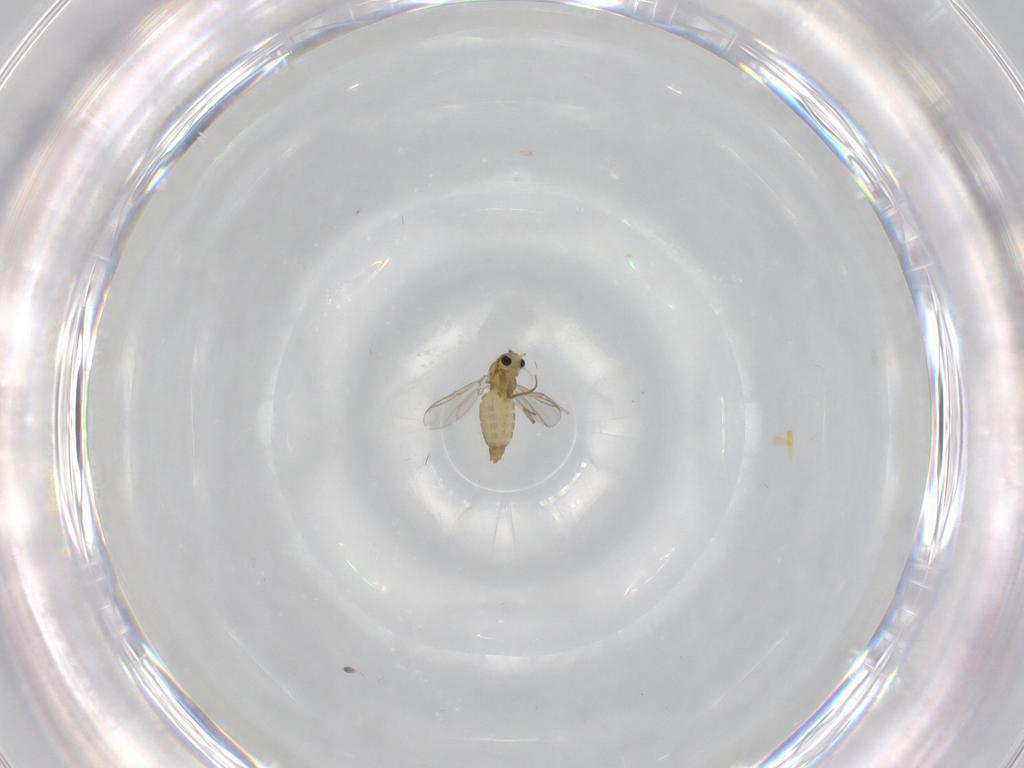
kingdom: Animalia
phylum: Arthropoda
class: Insecta
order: Diptera
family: Chironomidae
